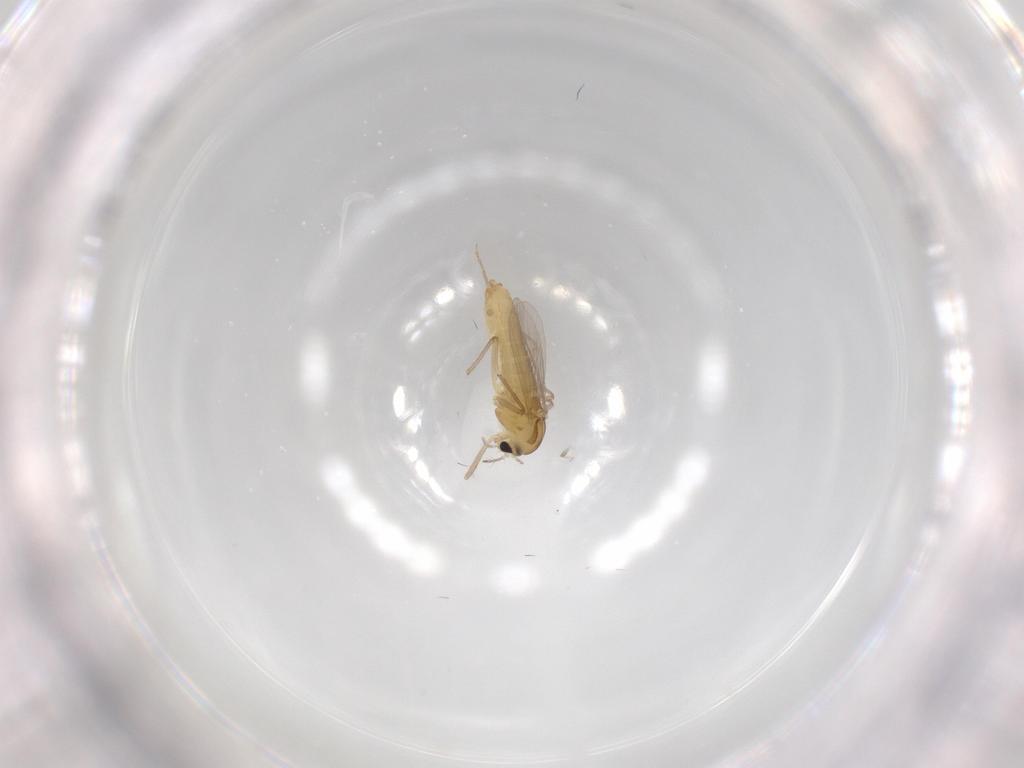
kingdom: Animalia
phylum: Arthropoda
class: Insecta
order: Diptera
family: Chironomidae
